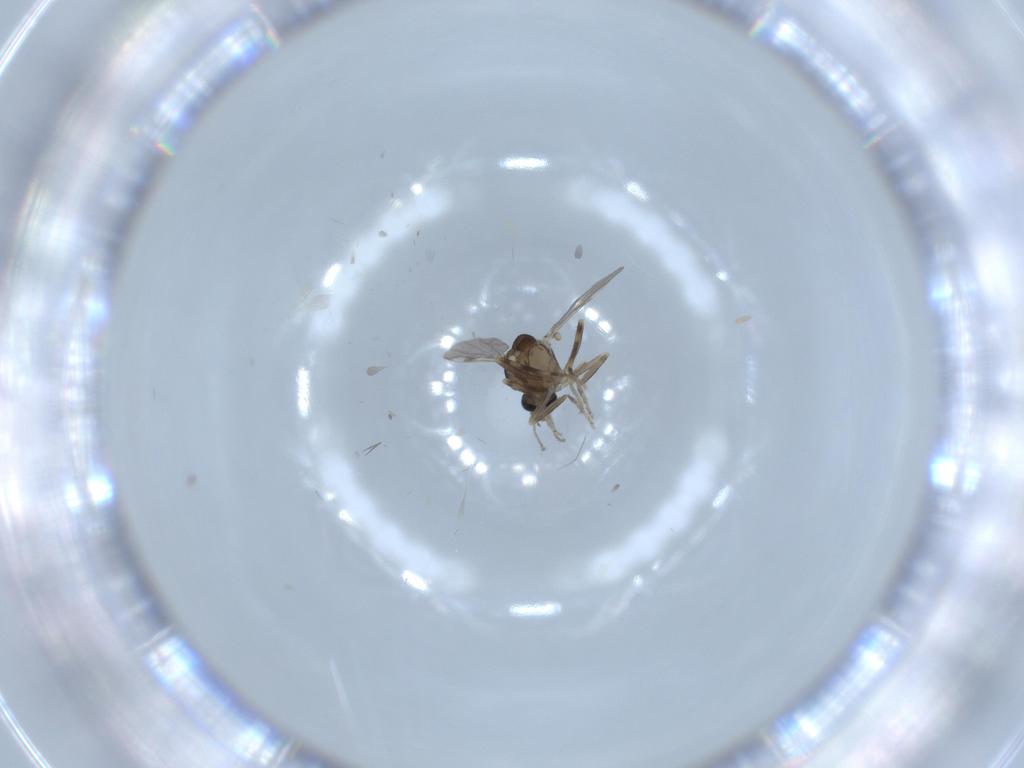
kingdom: Animalia
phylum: Arthropoda
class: Insecta
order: Diptera
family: Ceratopogonidae
